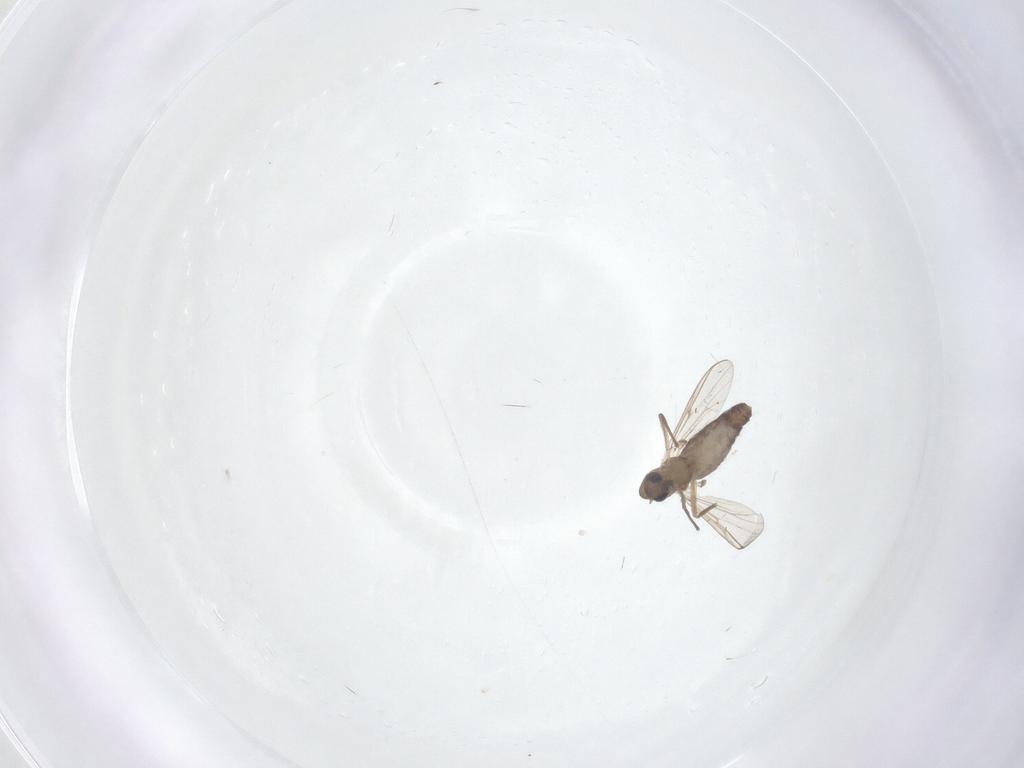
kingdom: Animalia
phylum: Arthropoda
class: Insecta
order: Diptera
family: Chironomidae
